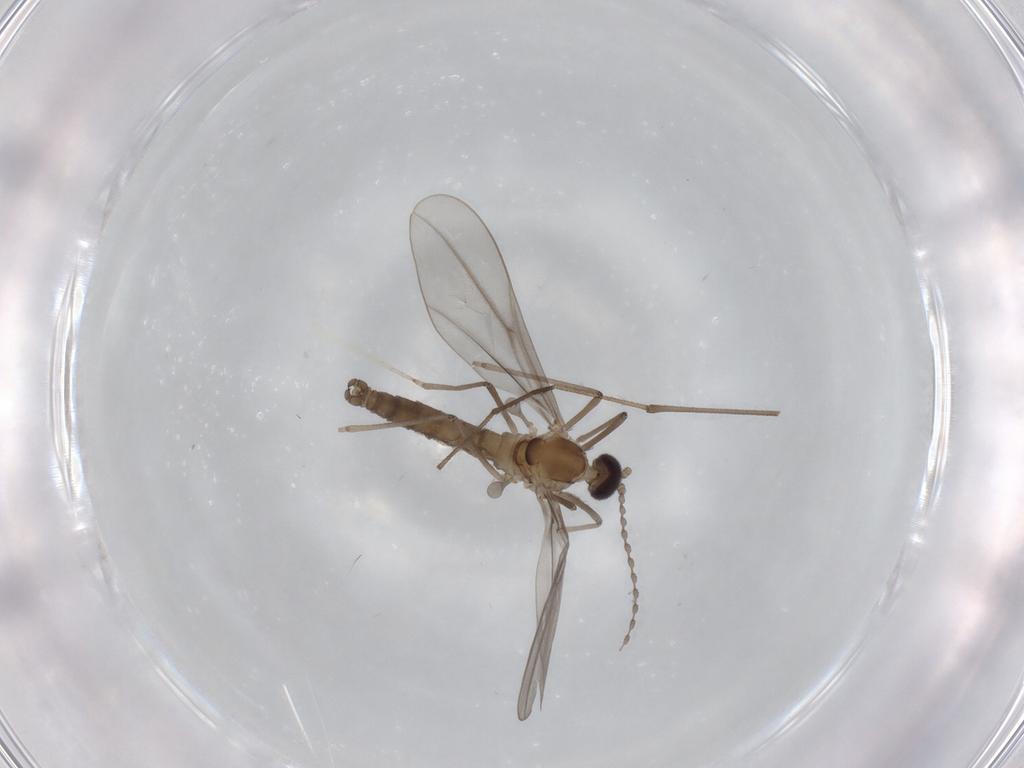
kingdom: Animalia
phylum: Arthropoda
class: Insecta
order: Diptera
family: Cecidomyiidae
